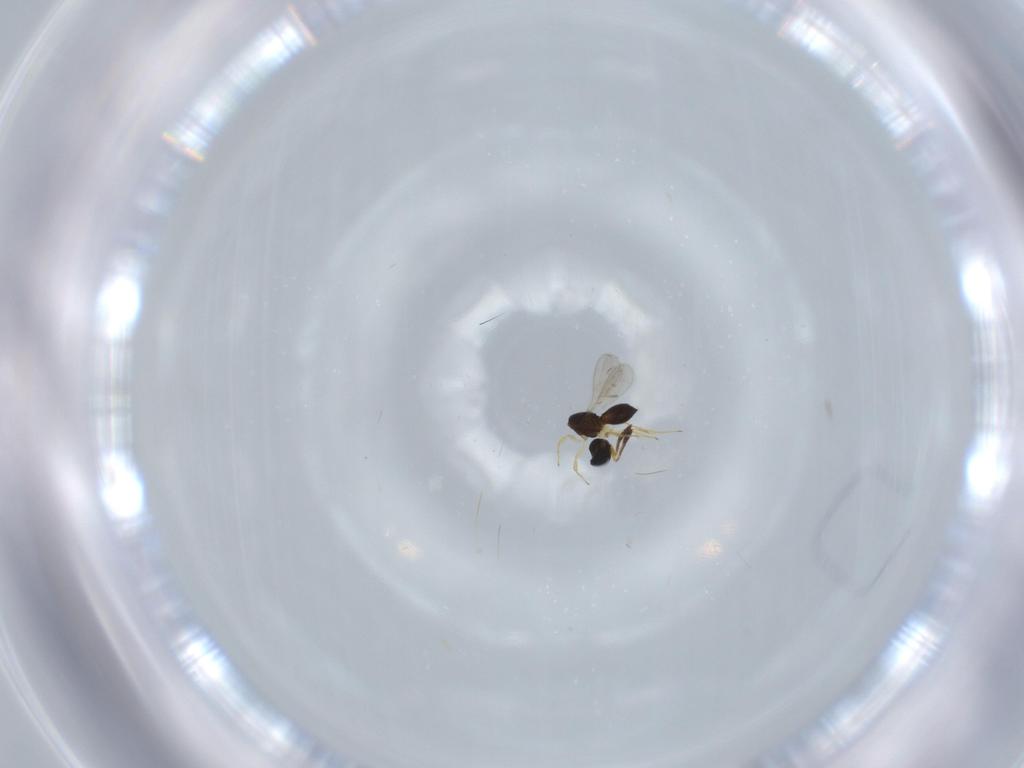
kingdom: Animalia
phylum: Arthropoda
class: Insecta
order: Hymenoptera
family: Scelionidae
